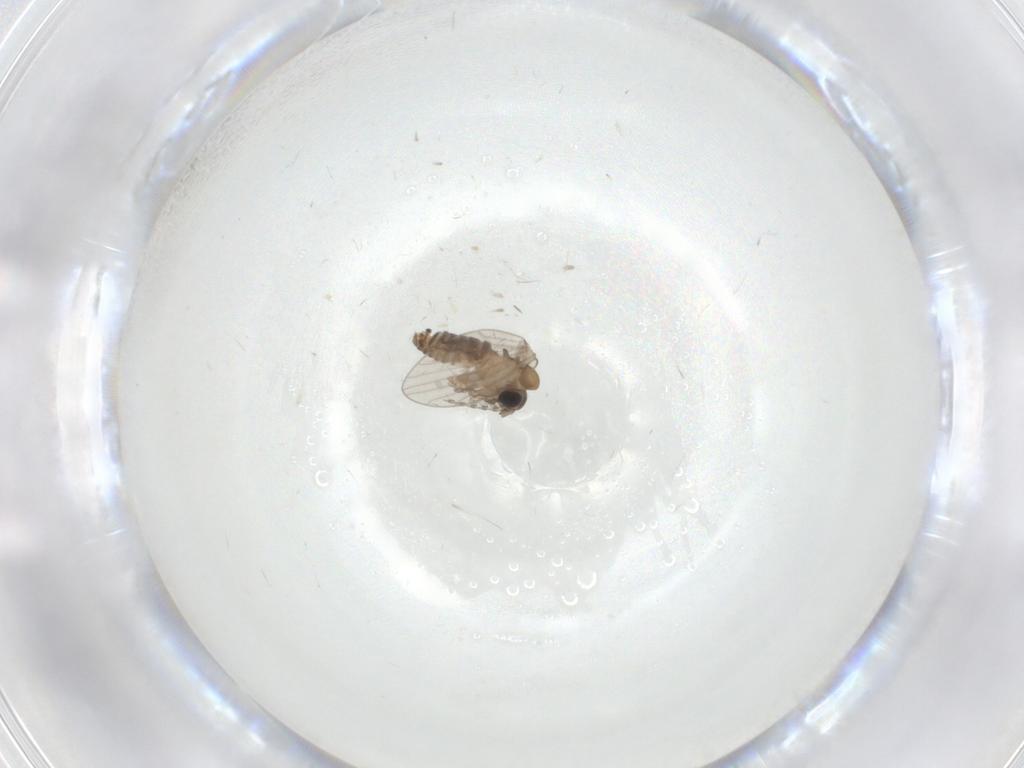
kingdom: Animalia
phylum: Arthropoda
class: Insecta
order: Diptera
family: Psychodidae
